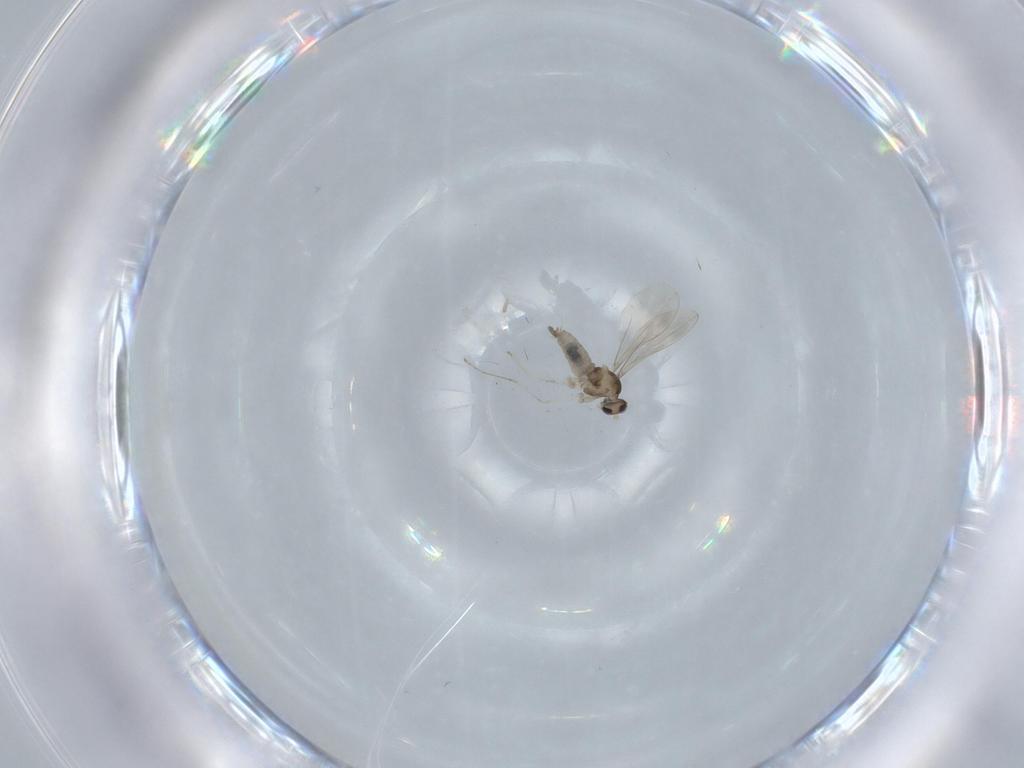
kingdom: Animalia
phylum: Arthropoda
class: Insecta
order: Diptera
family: Cecidomyiidae
